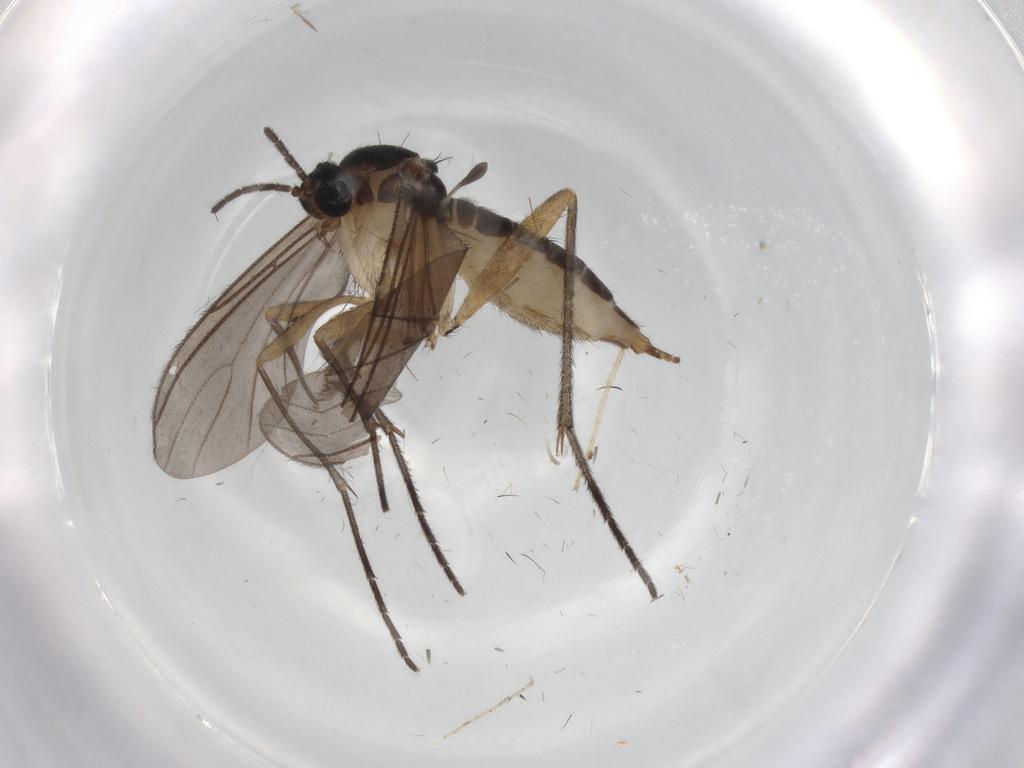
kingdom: Animalia
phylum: Arthropoda
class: Insecta
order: Diptera
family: Sciaridae
